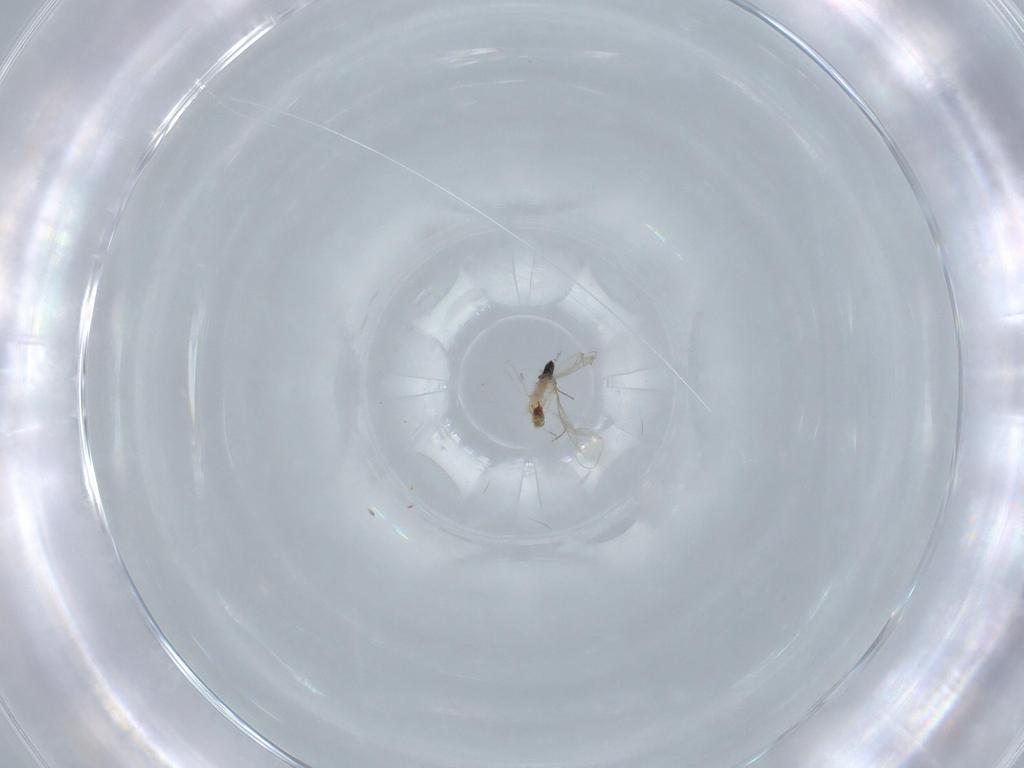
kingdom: Animalia
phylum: Arthropoda
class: Insecta
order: Diptera
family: Cecidomyiidae
